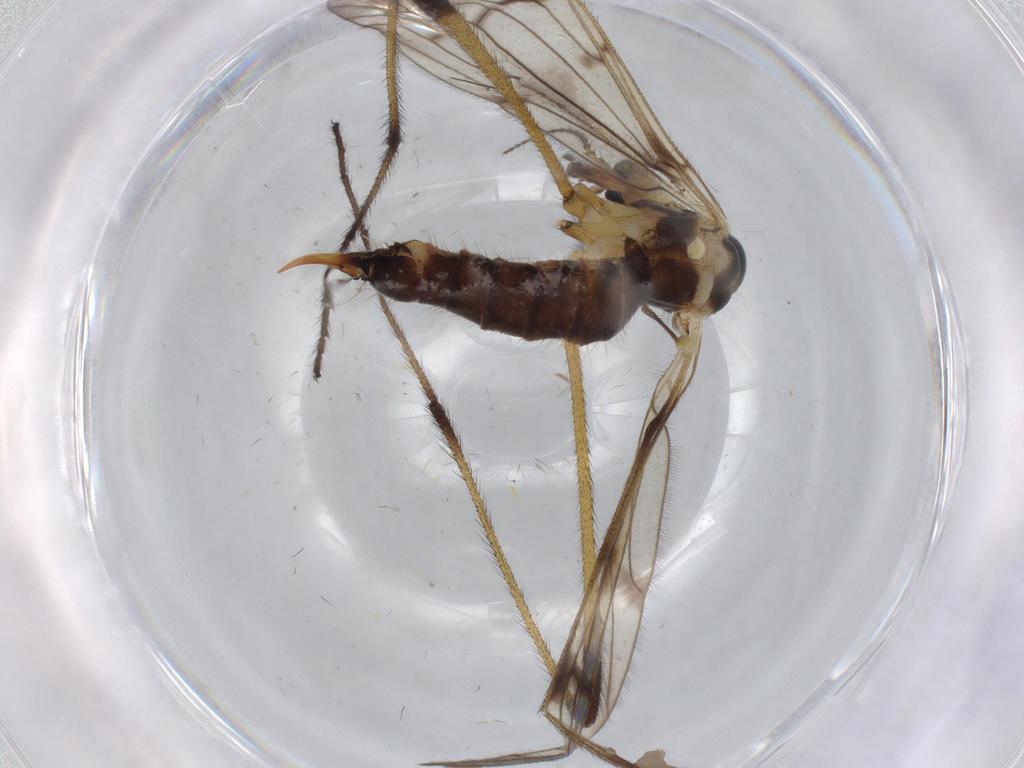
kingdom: Animalia
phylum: Arthropoda
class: Insecta
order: Diptera
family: Limoniidae
